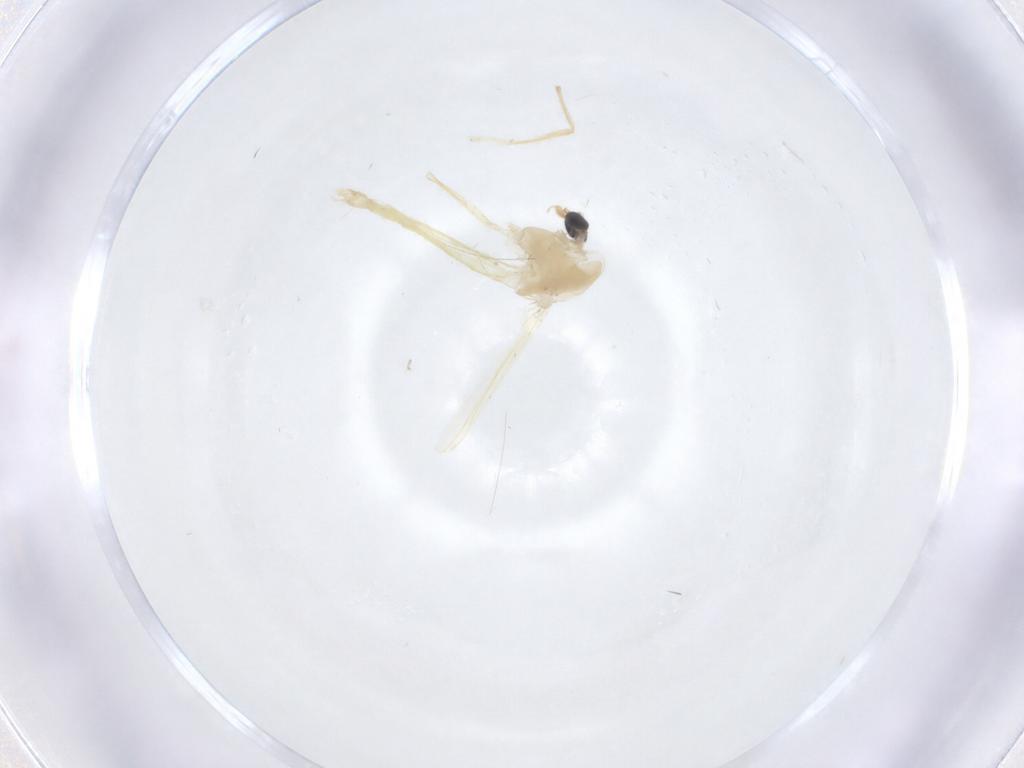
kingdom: Animalia
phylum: Arthropoda
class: Insecta
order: Diptera
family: Chironomidae
